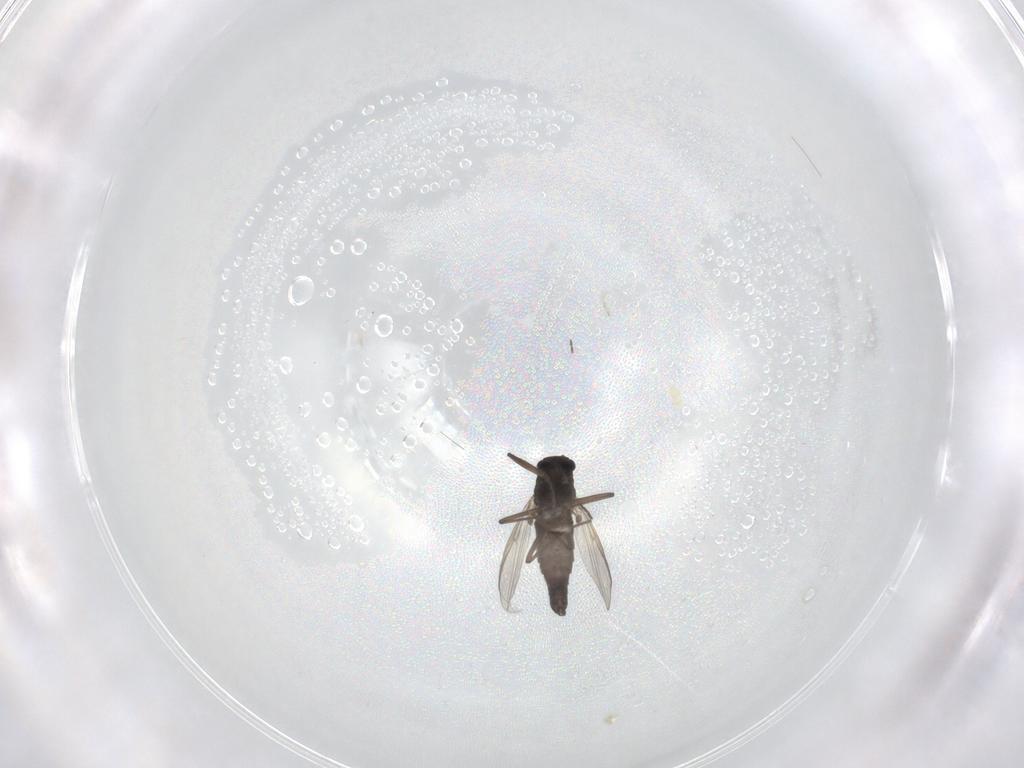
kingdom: Animalia
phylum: Arthropoda
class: Insecta
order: Diptera
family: Chironomidae
